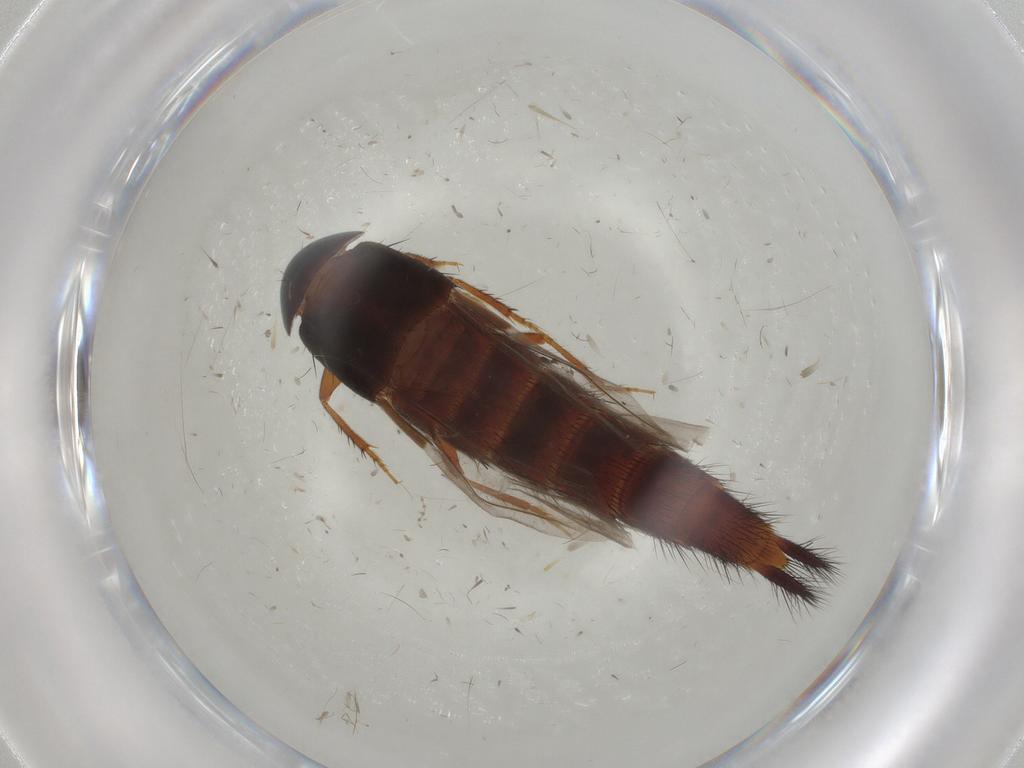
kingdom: Animalia
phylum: Arthropoda
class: Insecta
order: Coleoptera
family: Staphylinidae
